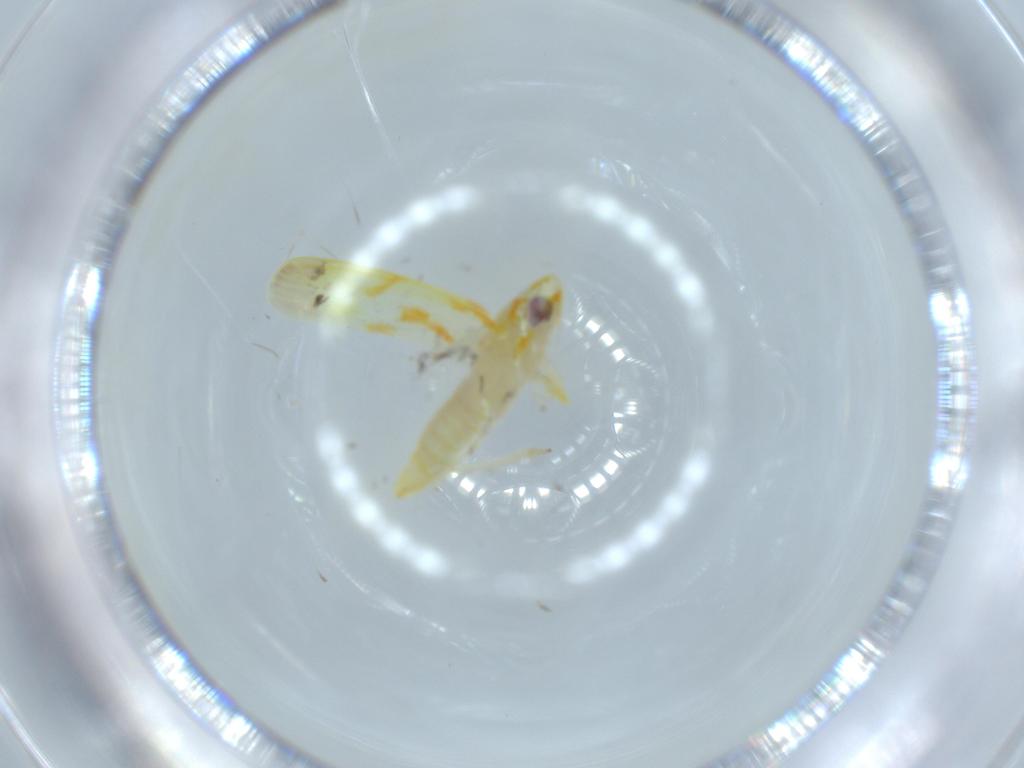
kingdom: Animalia
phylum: Arthropoda
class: Insecta
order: Hemiptera
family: Cicadellidae
